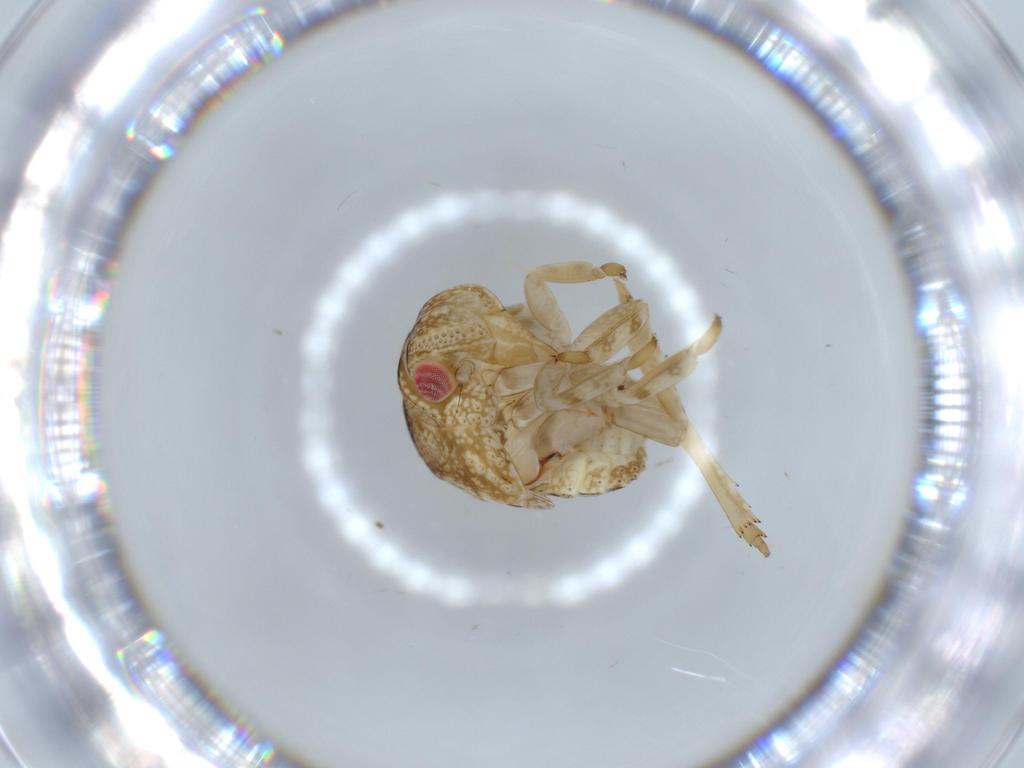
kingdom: Animalia
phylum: Arthropoda
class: Insecta
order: Hemiptera
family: Acanaloniidae
